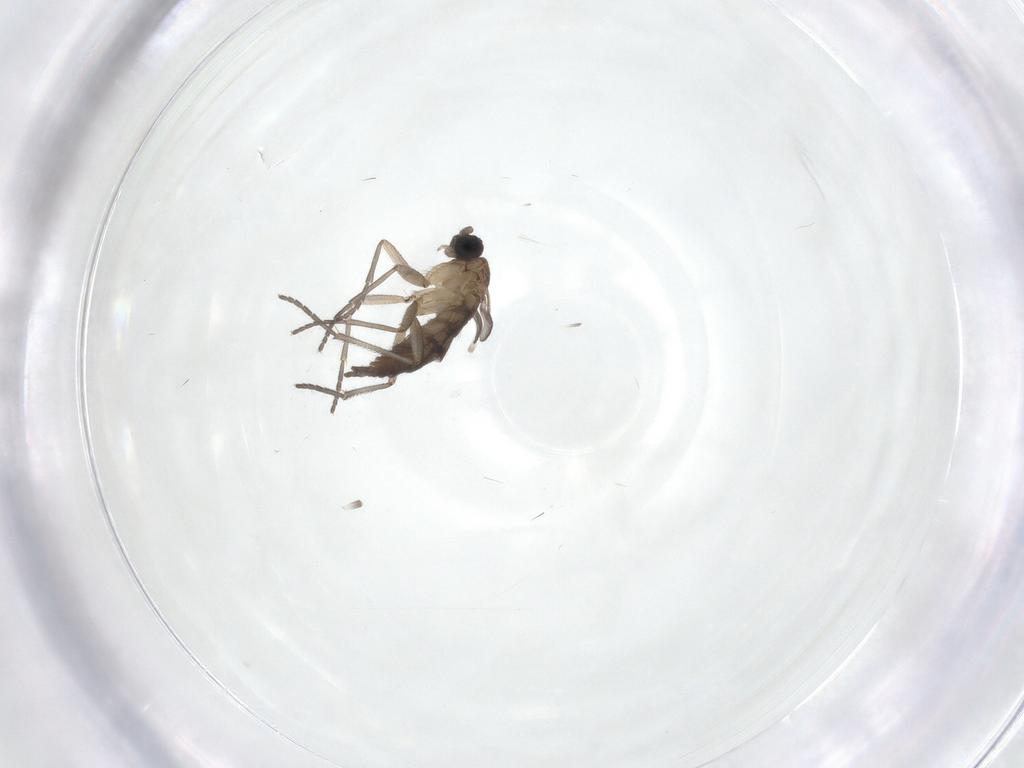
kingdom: Animalia
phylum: Arthropoda
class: Insecta
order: Diptera
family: Sciaridae
